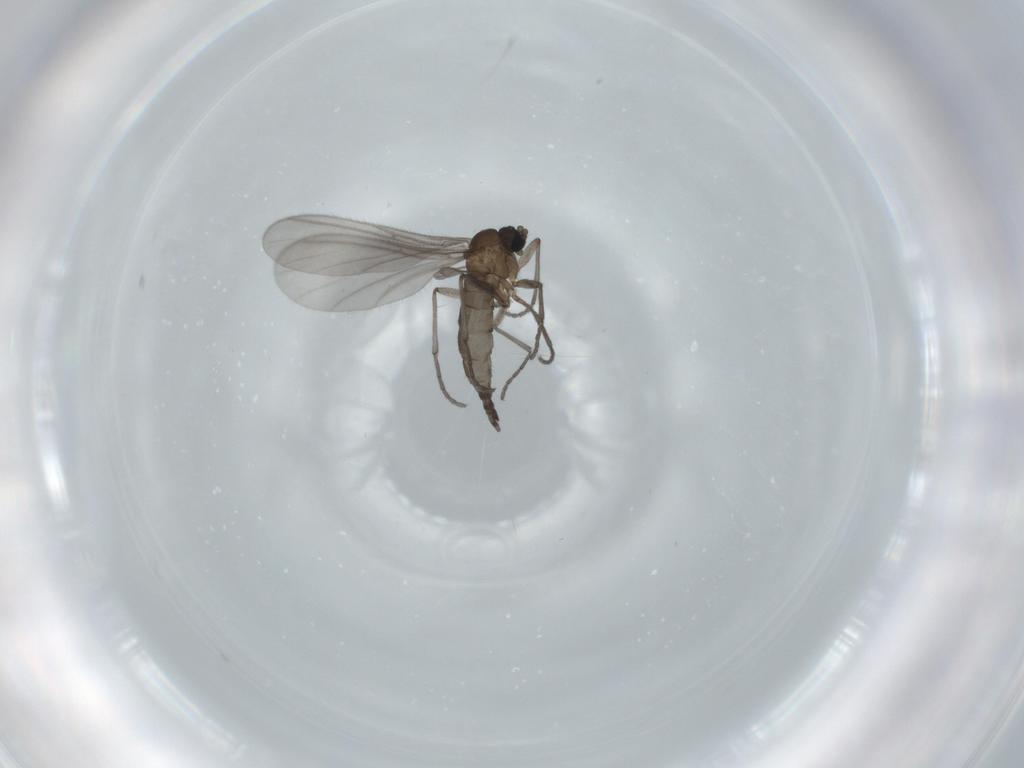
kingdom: Animalia
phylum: Arthropoda
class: Insecta
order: Diptera
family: Sciaridae
